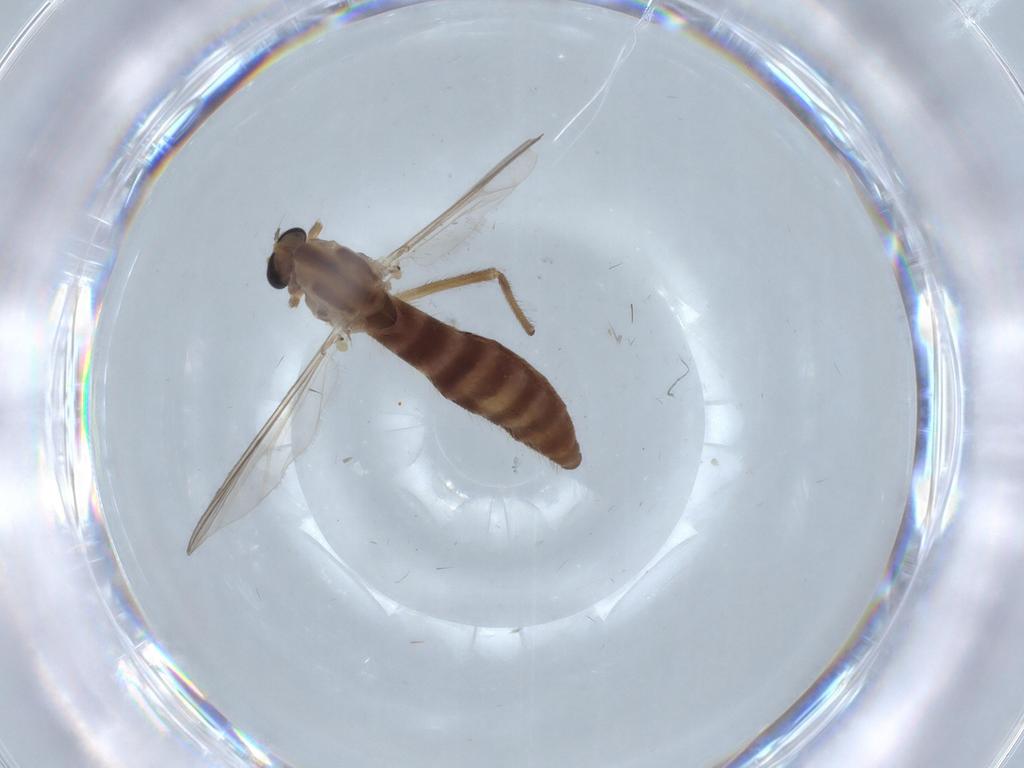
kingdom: Animalia
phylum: Arthropoda
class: Insecta
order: Diptera
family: Chironomidae
